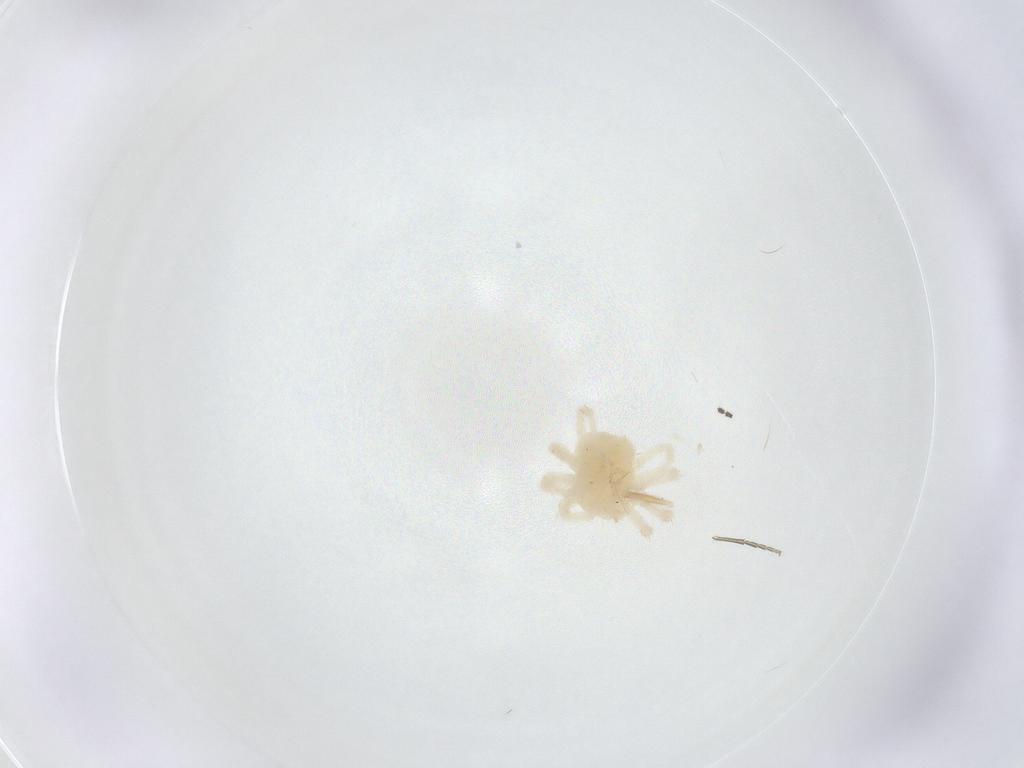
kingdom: Animalia
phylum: Arthropoda
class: Arachnida
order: Trombidiformes
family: Anystidae
